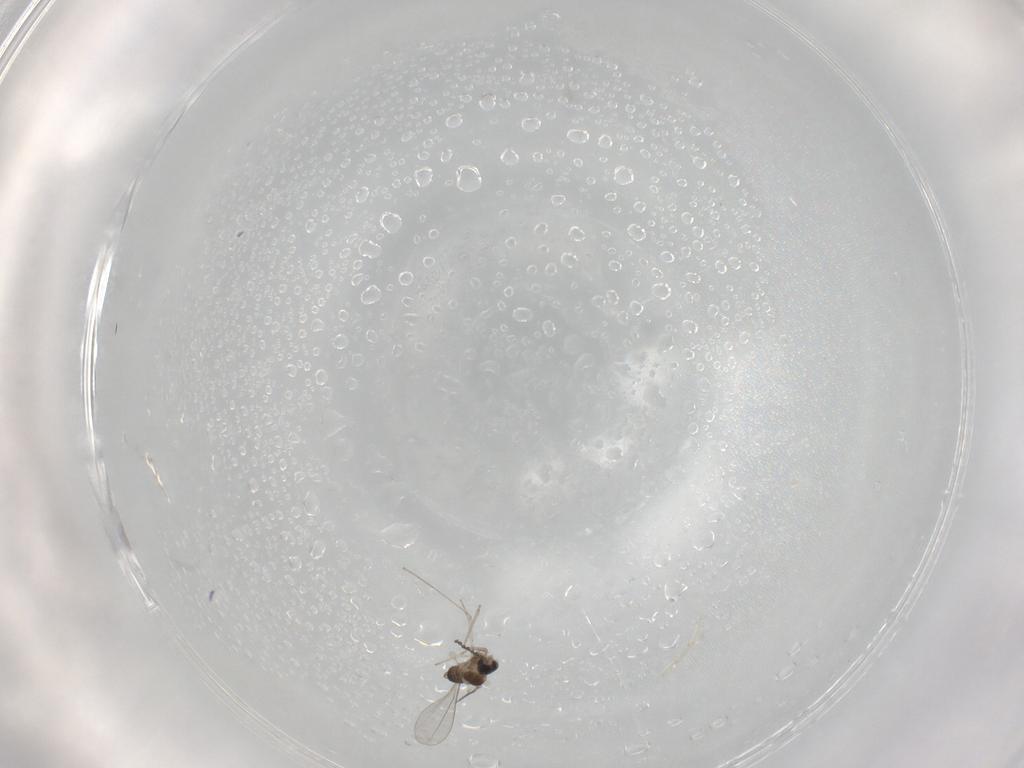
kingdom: Animalia
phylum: Arthropoda
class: Insecta
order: Diptera
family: Cecidomyiidae
